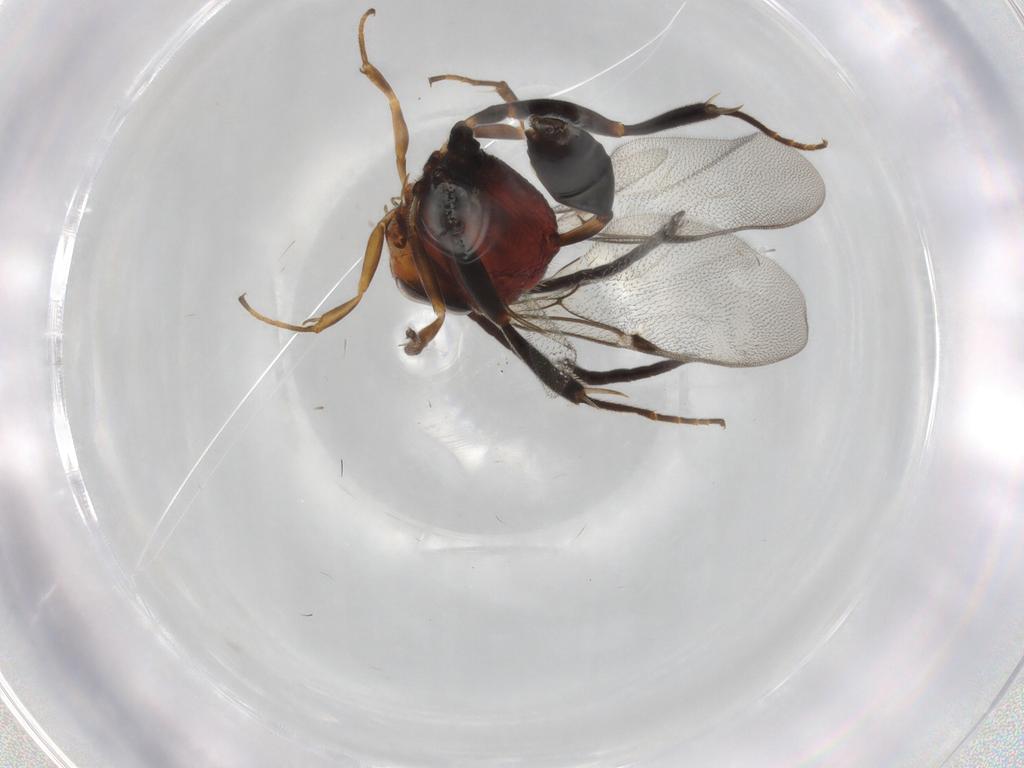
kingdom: Animalia
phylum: Arthropoda
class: Insecta
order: Hymenoptera
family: Evaniidae
